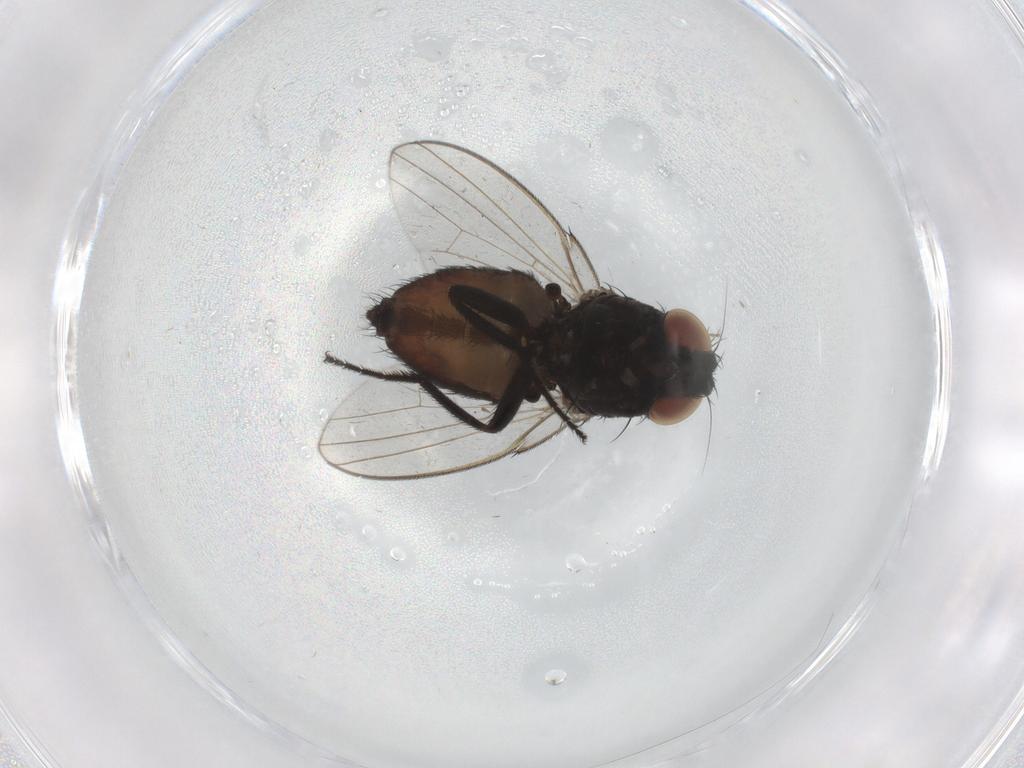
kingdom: Animalia
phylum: Arthropoda
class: Insecta
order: Diptera
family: Milichiidae
